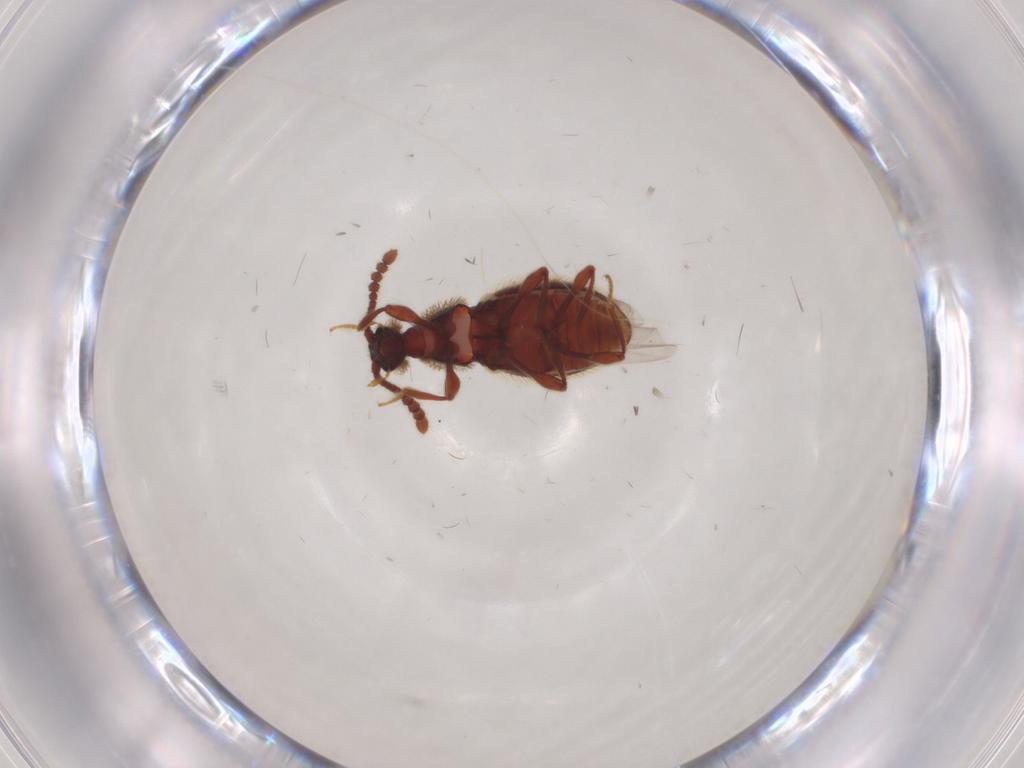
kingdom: Animalia
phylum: Arthropoda
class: Insecta
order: Coleoptera
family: Staphylinidae
